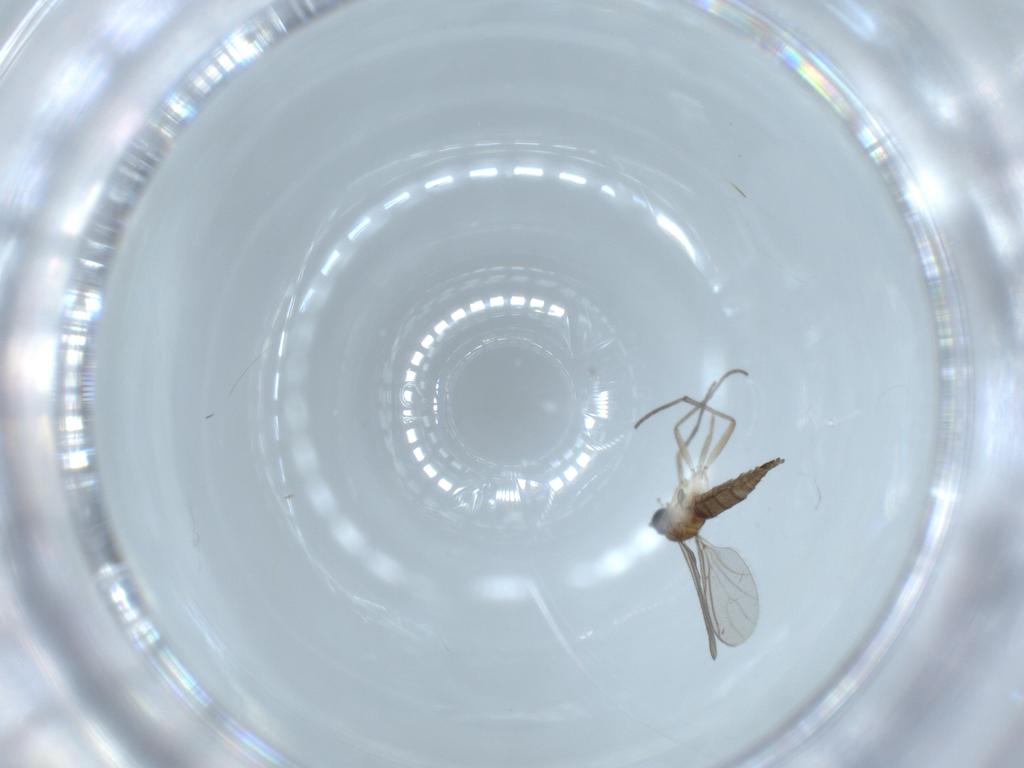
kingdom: Animalia
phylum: Arthropoda
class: Insecta
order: Diptera
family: Sciaridae
